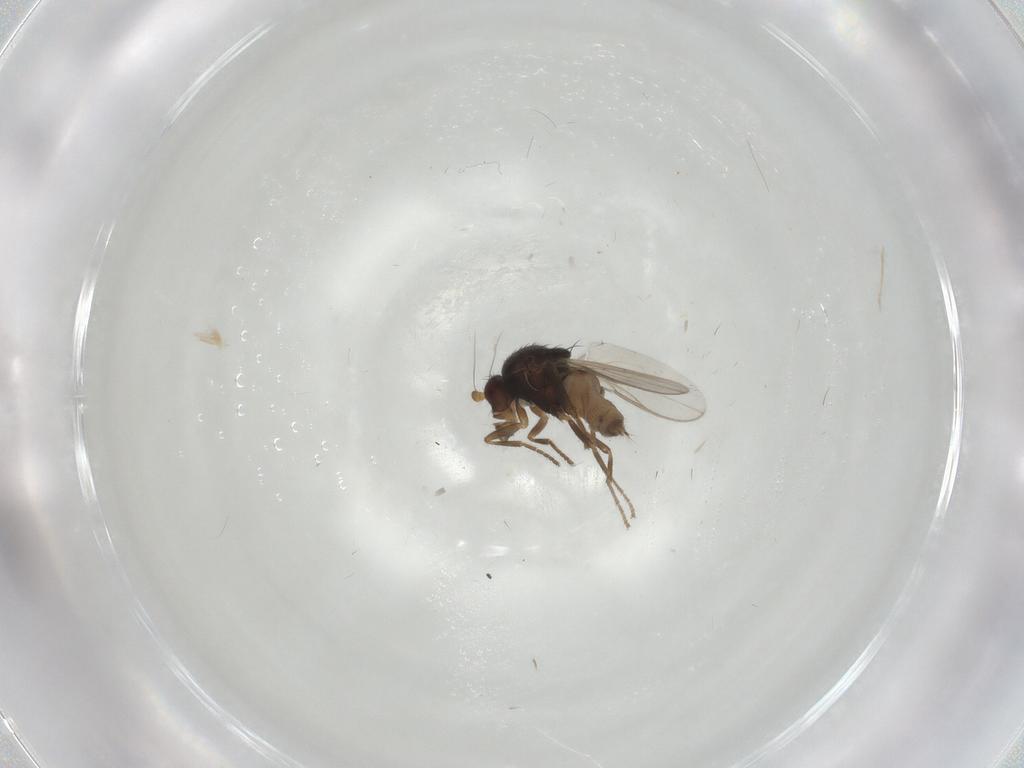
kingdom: Animalia
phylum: Arthropoda
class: Insecta
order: Diptera
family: Sphaeroceridae
